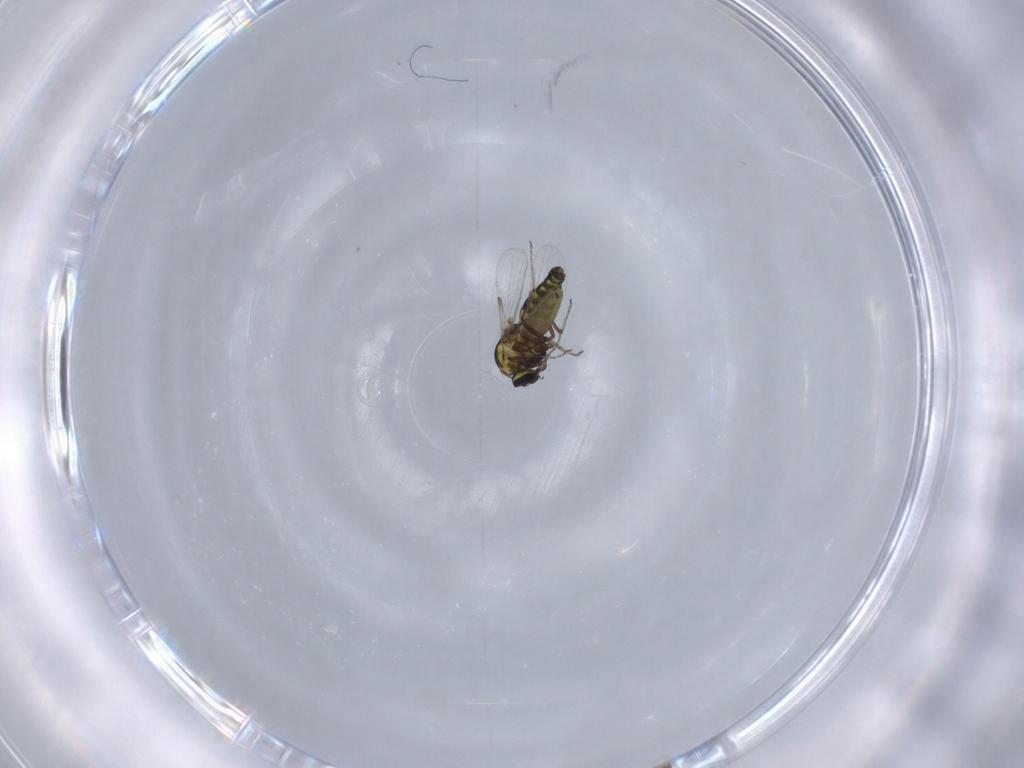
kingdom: Animalia
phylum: Arthropoda
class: Insecta
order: Diptera
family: Ceratopogonidae
